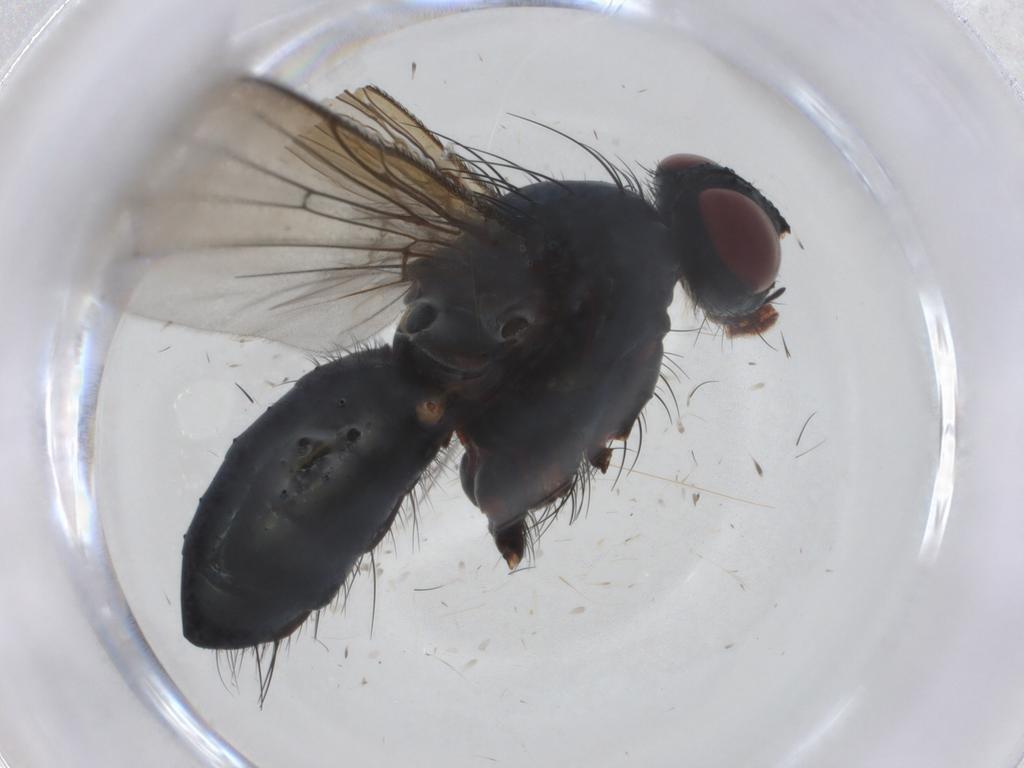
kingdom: Animalia
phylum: Arthropoda
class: Insecta
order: Diptera
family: Tachinidae
